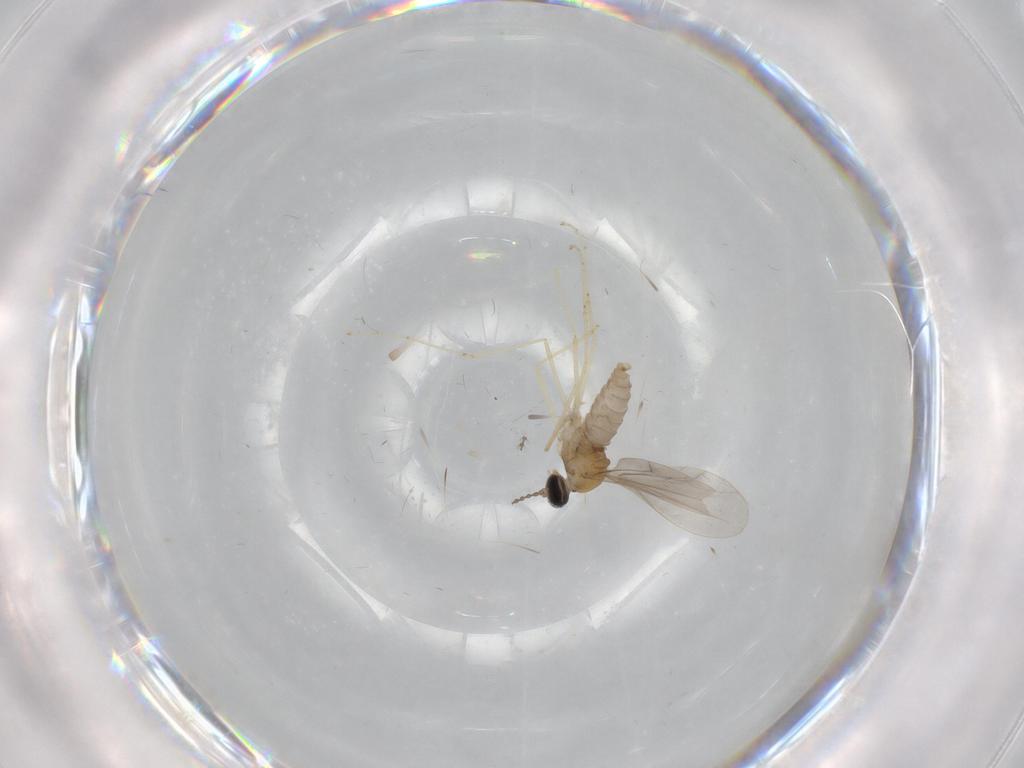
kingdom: Animalia
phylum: Arthropoda
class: Insecta
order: Diptera
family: Cecidomyiidae
